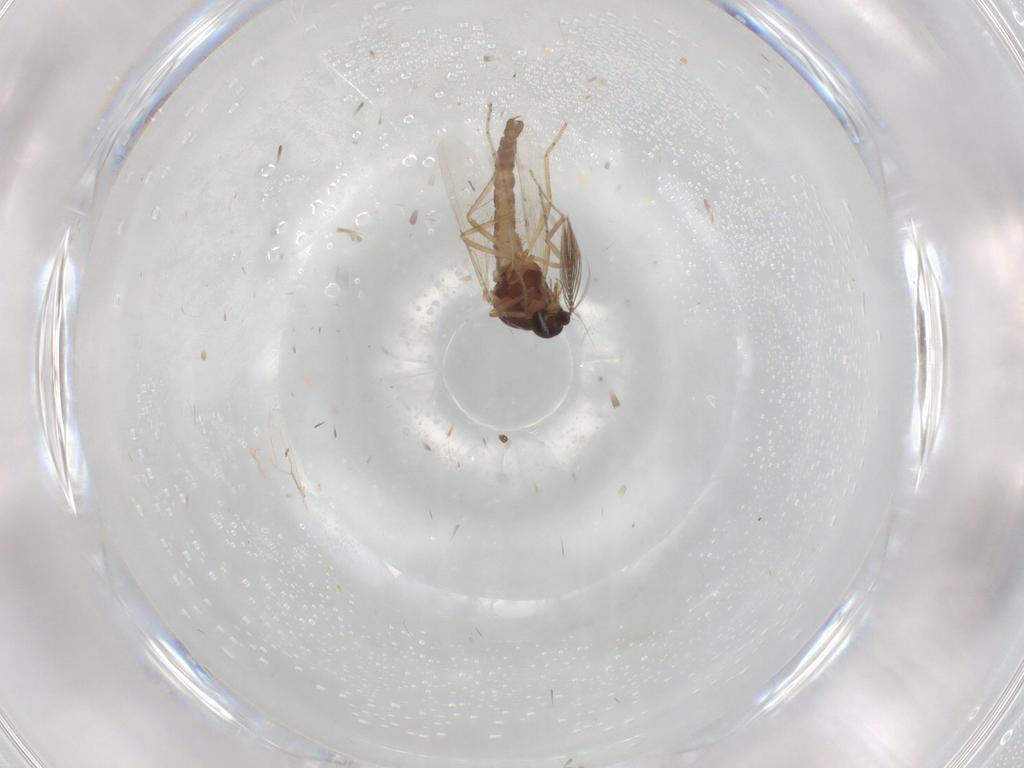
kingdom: Animalia
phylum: Arthropoda
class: Insecta
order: Diptera
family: Ceratopogonidae
